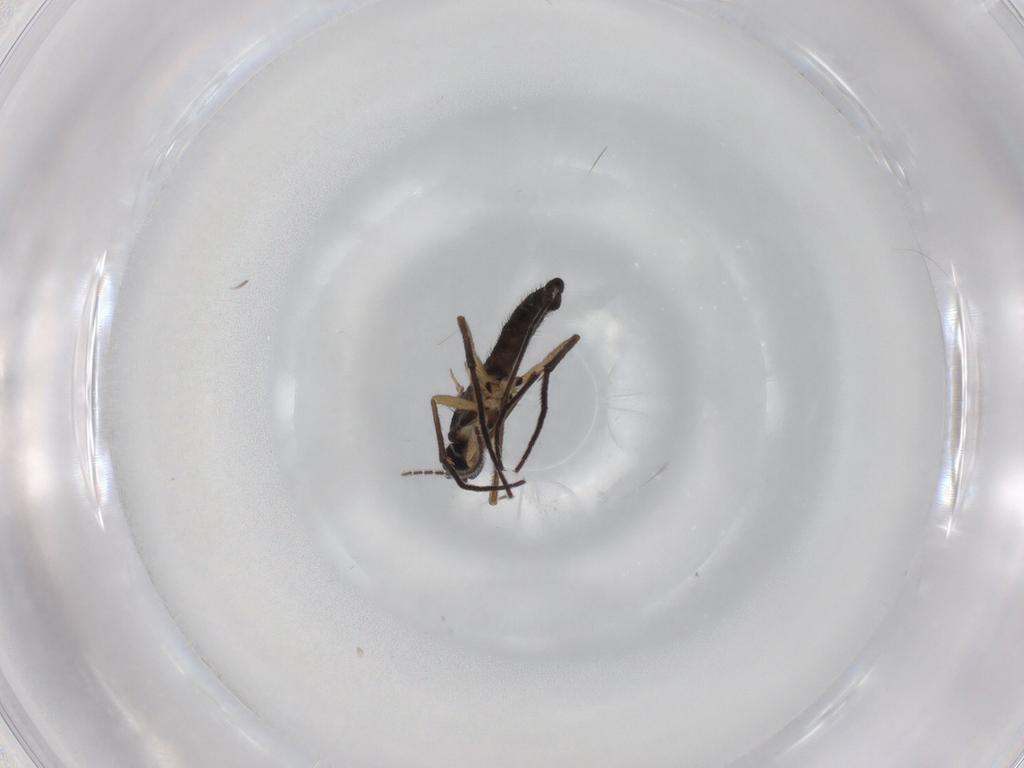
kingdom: Animalia
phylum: Arthropoda
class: Insecta
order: Diptera
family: Sciaridae
